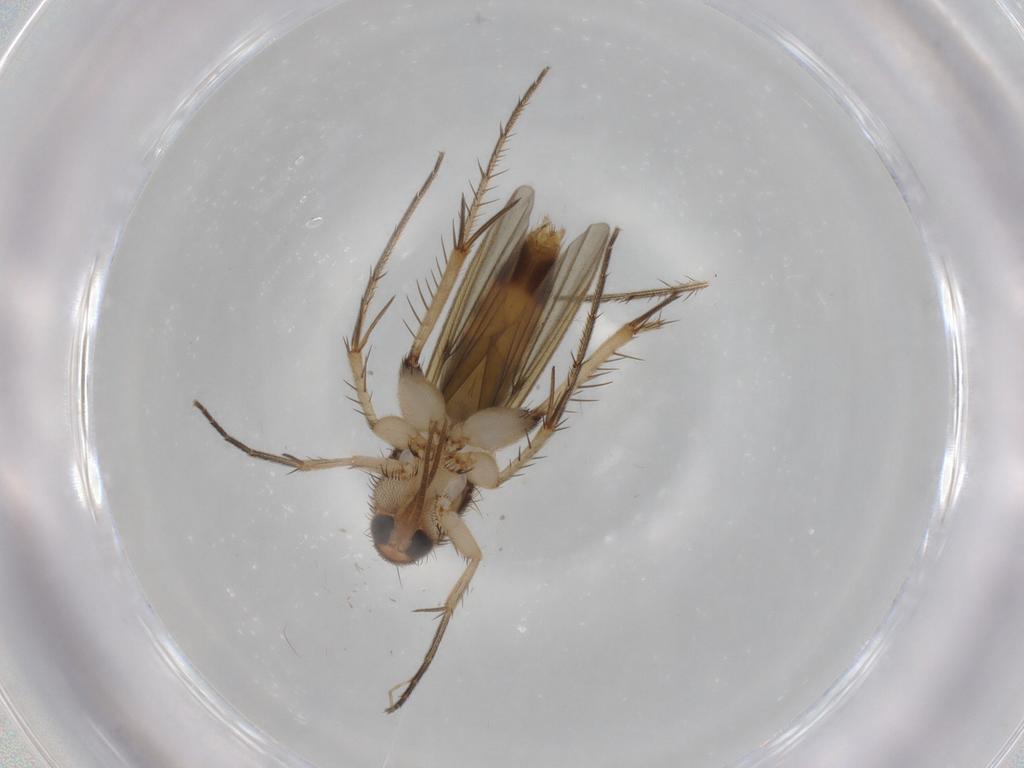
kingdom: Animalia
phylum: Arthropoda
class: Insecta
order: Diptera
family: Mycetophilidae
